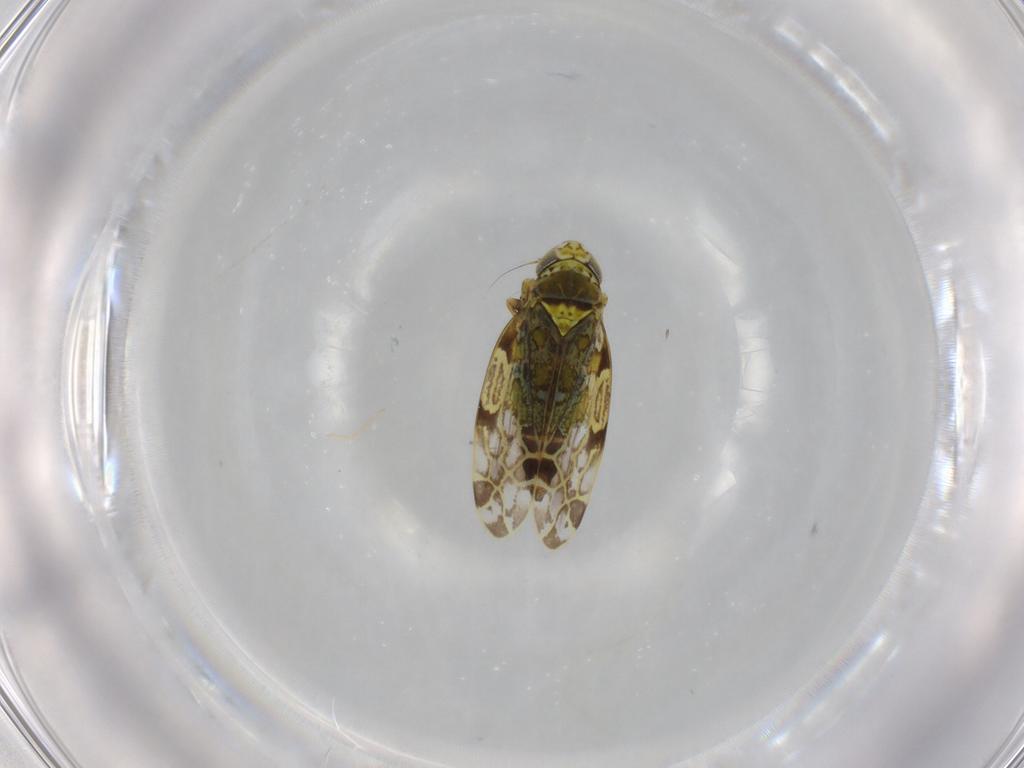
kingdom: Animalia
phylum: Arthropoda
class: Insecta
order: Hemiptera
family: Cicadellidae
